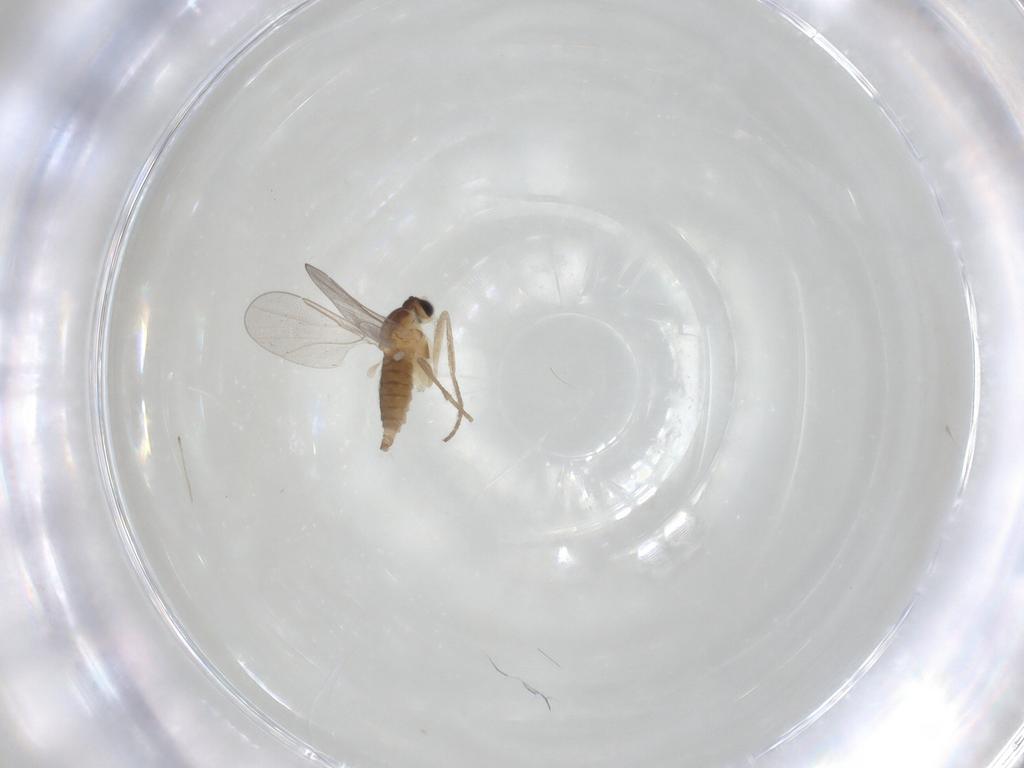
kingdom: Animalia
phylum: Arthropoda
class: Insecta
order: Diptera
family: Cecidomyiidae
